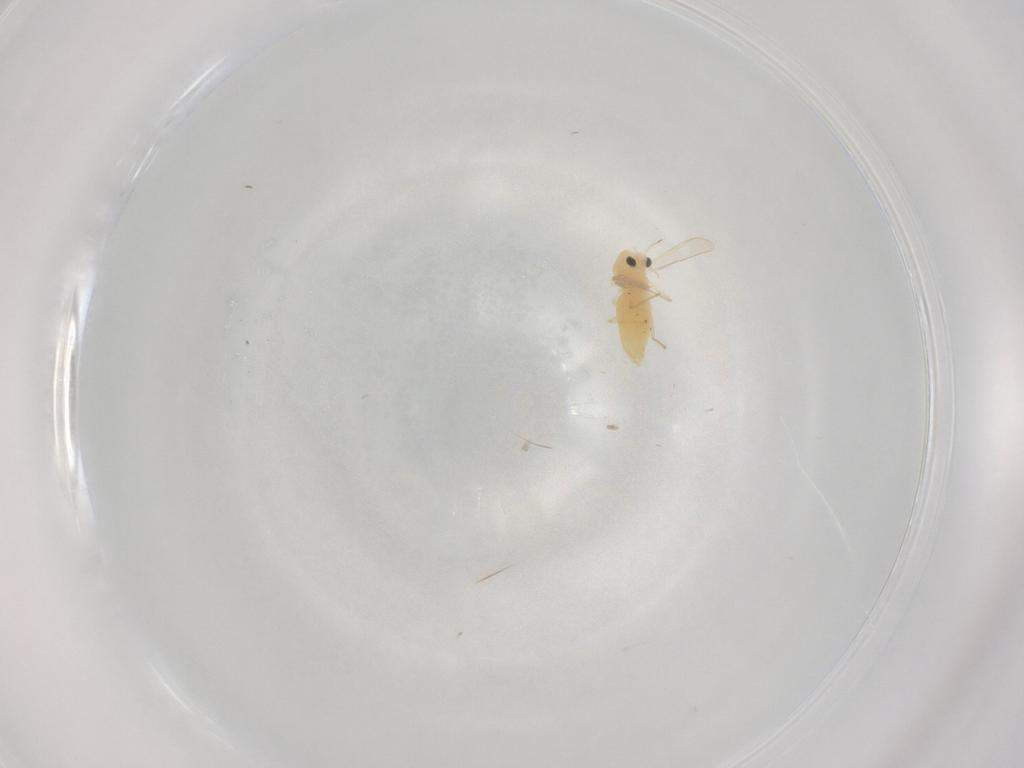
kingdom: Animalia
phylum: Arthropoda
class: Insecta
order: Diptera
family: Chironomidae
